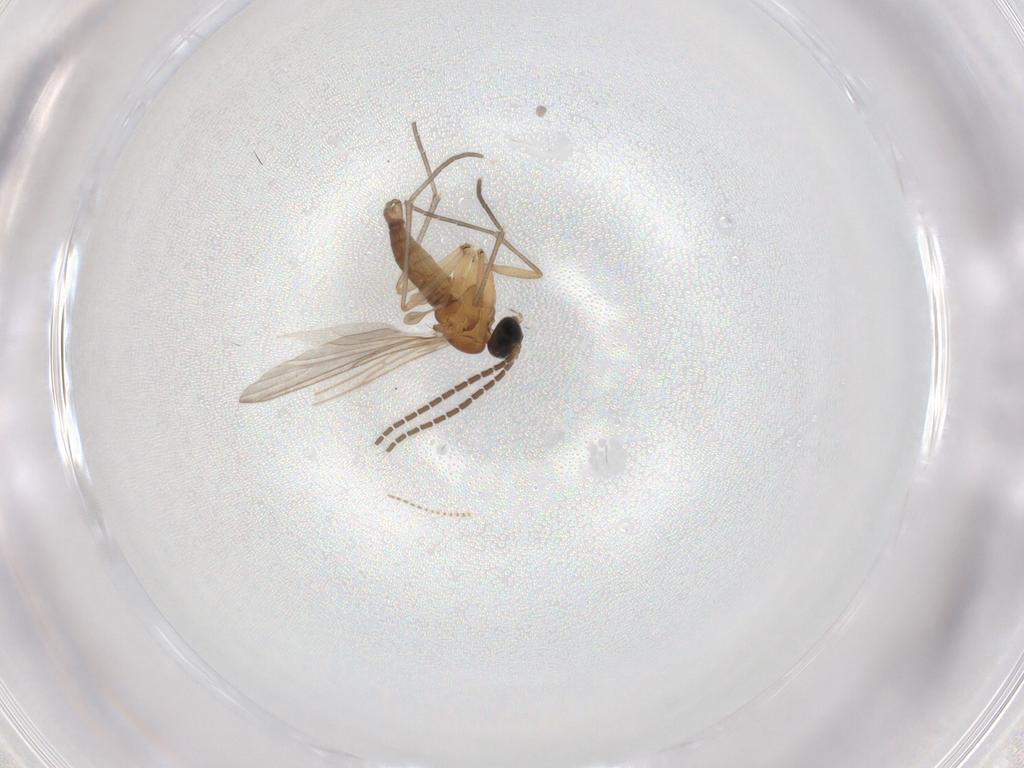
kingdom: Animalia
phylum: Arthropoda
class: Insecta
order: Diptera
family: Sciaridae
